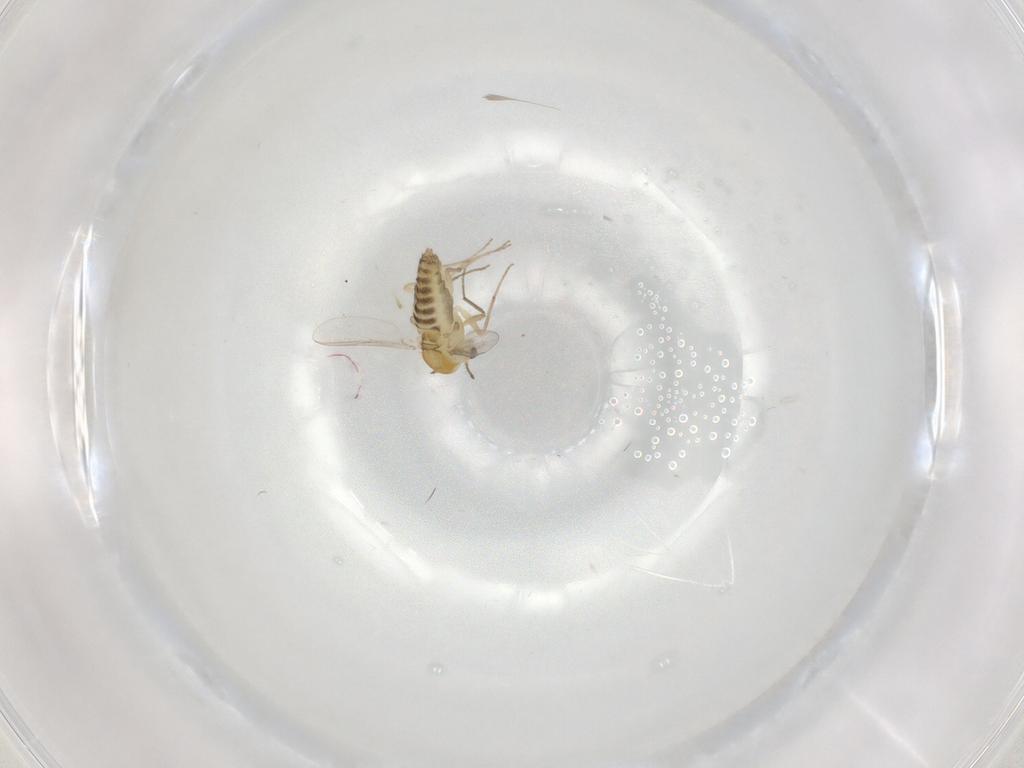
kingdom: Animalia
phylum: Arthropoda
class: Insecta
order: Diptera
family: Chironomidae
